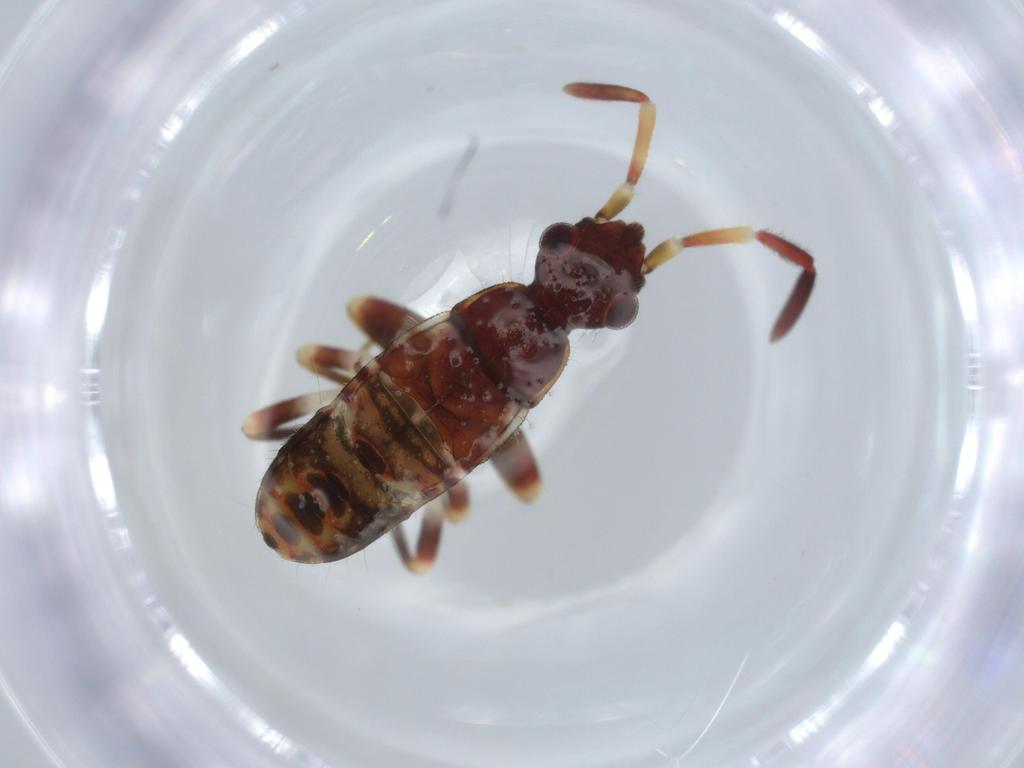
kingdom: Animalia
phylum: Arthropoda
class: Insecta
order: Hemiptera
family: Rhyparochromidae
